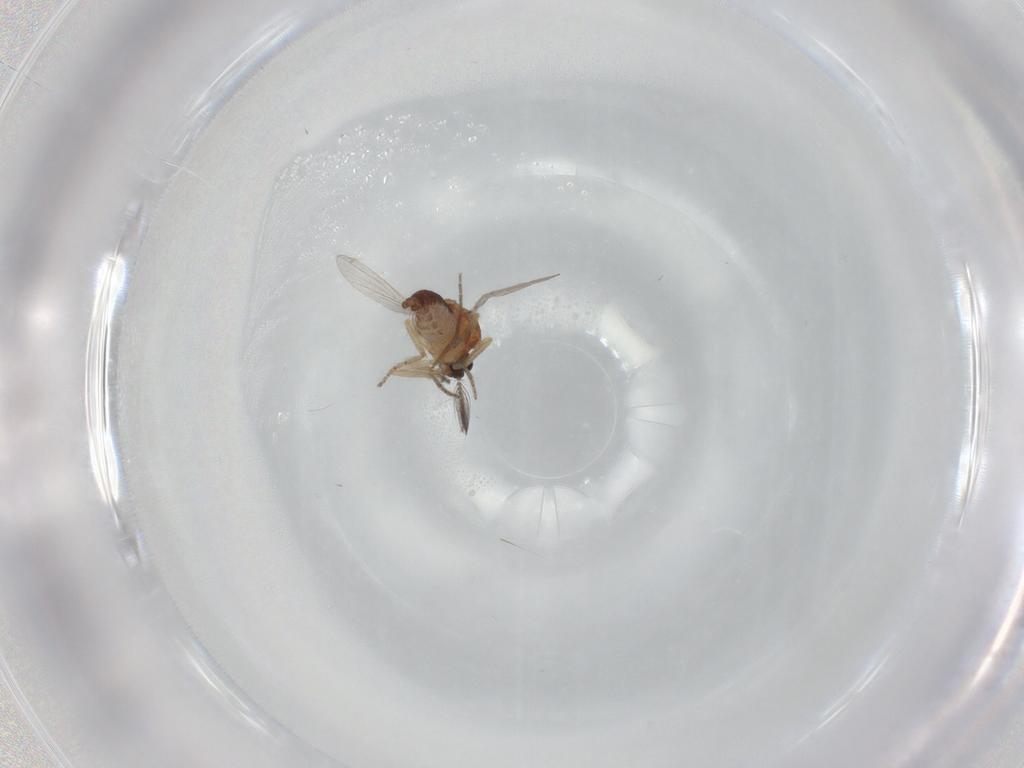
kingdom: Animalia
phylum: Arthropoda
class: Insecta
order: Diptera
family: Ceratopogonidae
